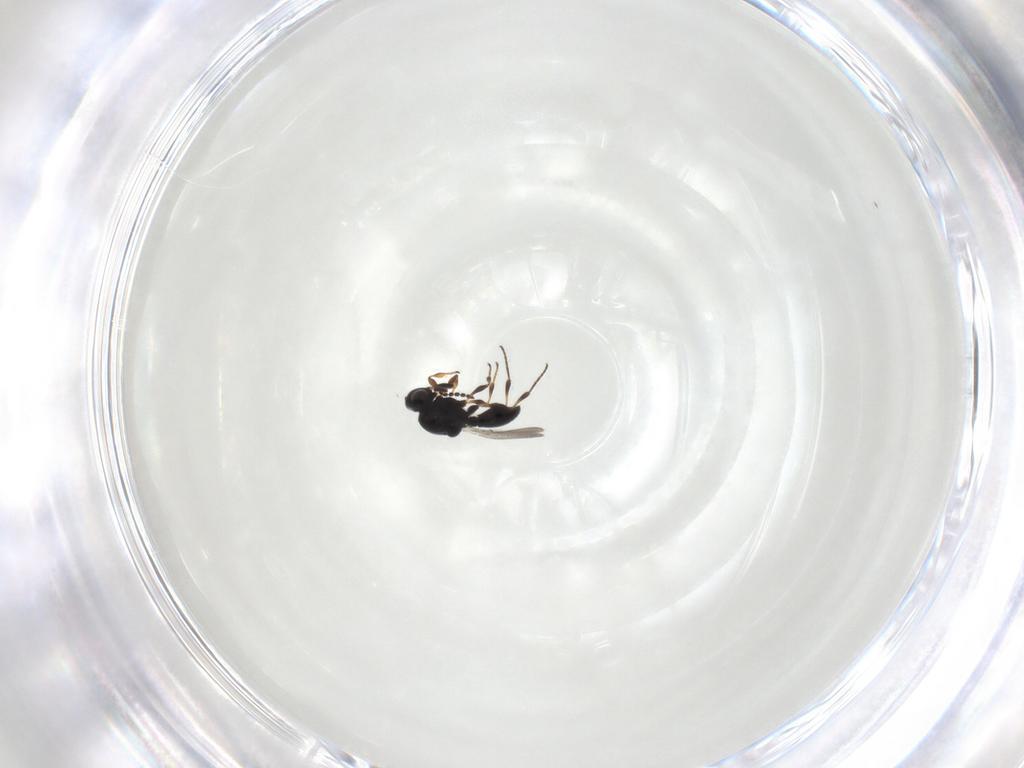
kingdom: Animalia
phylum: Arthropoda
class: Insecta
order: Hymenoptera
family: Platygastridae
